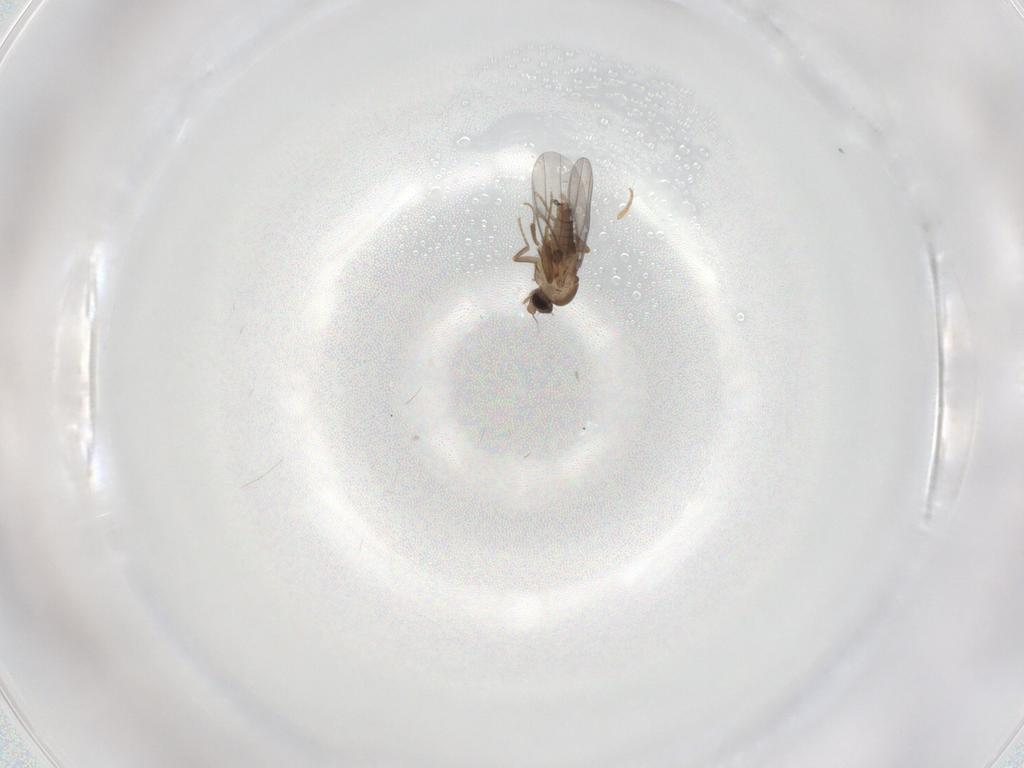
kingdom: Animalia
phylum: Arthropoda
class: Insecta
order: Diptera
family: Sphaeroceridae
